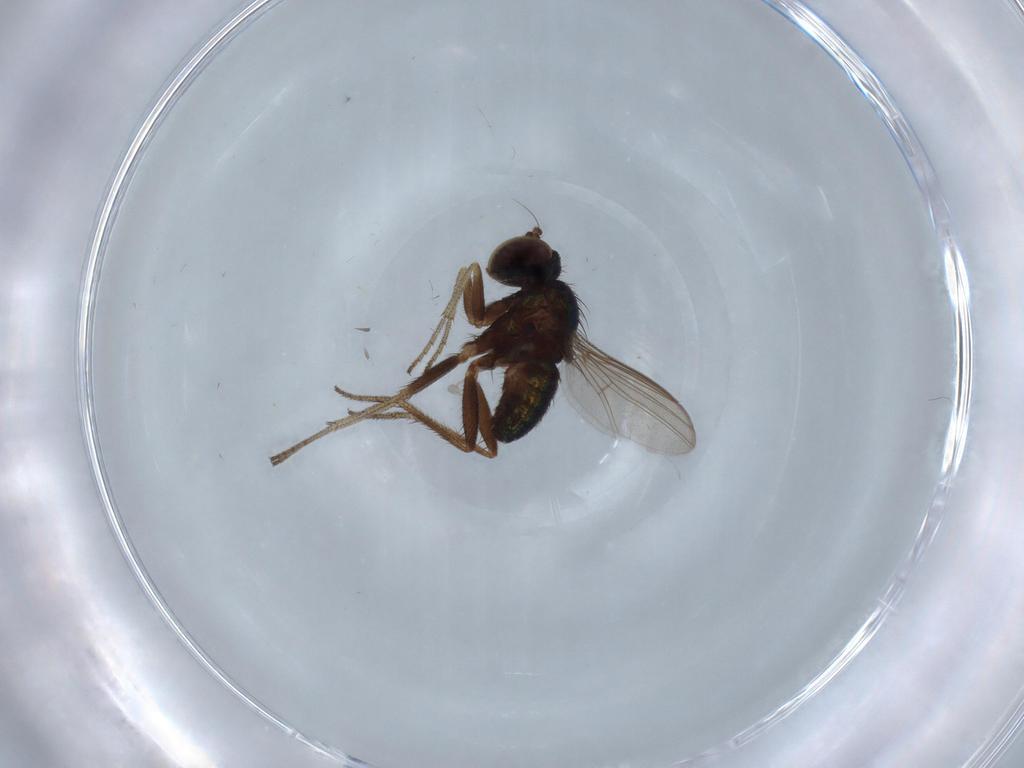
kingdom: Animalia
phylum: Arthropoda
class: Insecta
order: Diptera
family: Dolichopodidae
